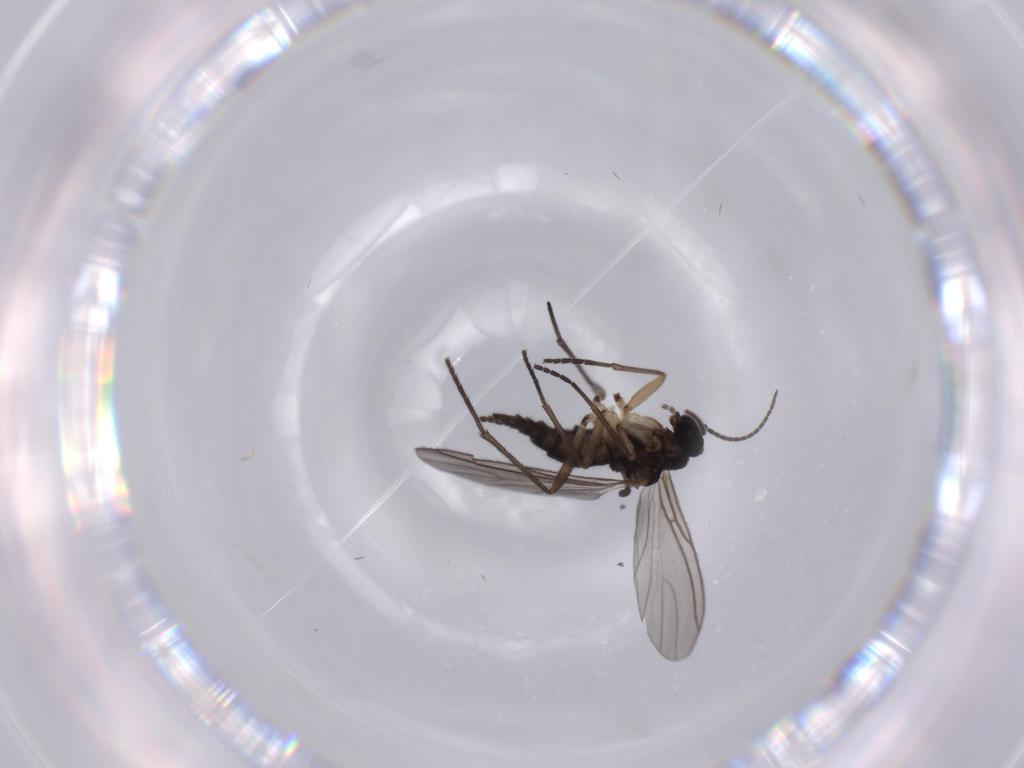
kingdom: Animalia
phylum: Arthropoda
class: Insecta
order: Diptera
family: Sciaridae
